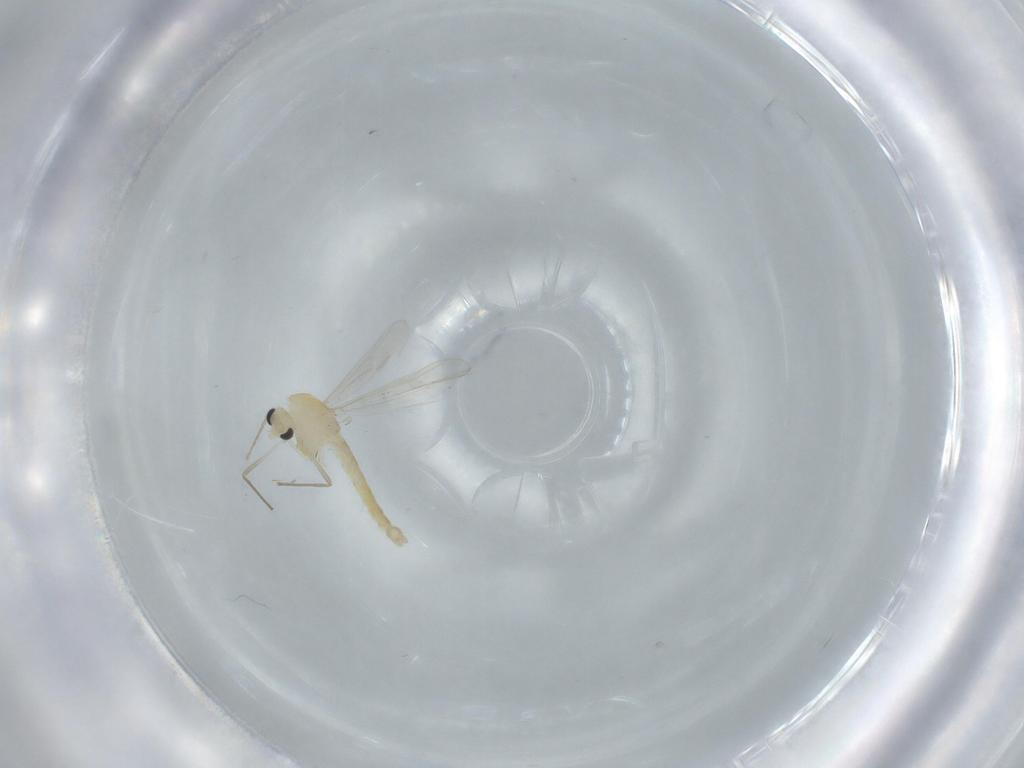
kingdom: Animalia
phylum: Arthropoda
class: Insecta
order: Diptera
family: Chironomidae
